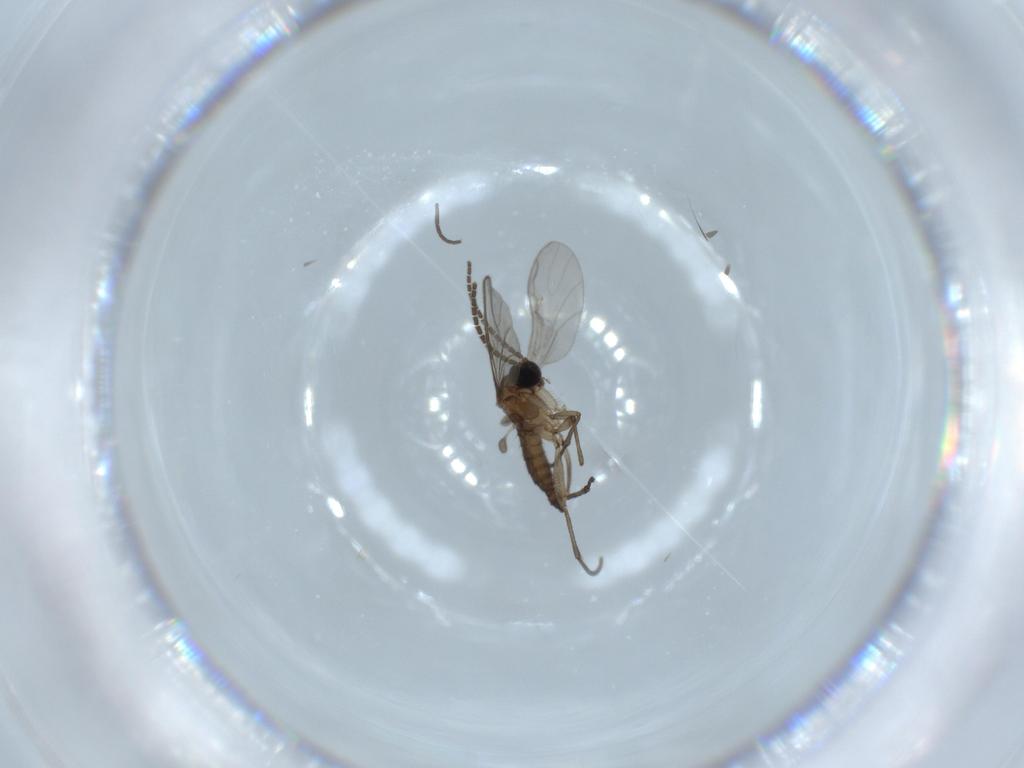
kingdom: Animalia
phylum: Arthropoda
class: Insecta
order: Diptera
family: Sciaridae
